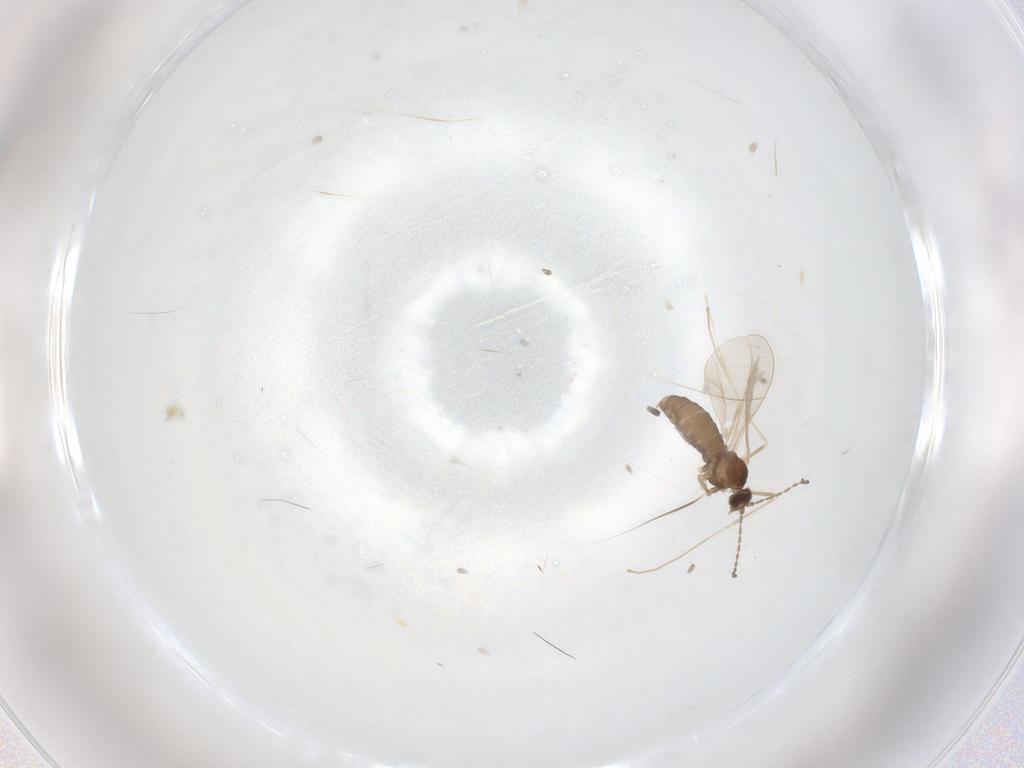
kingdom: Animalia
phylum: Arthropoda
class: Insecta
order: Diptera
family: Cecidomyiidae
